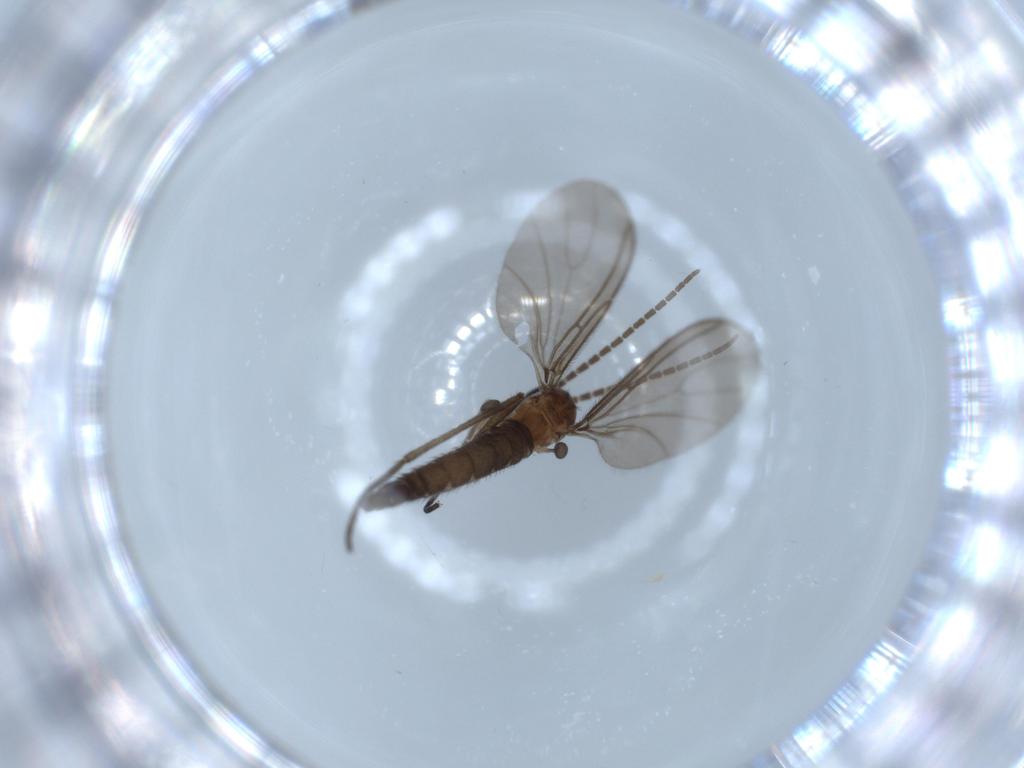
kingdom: Animalia
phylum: Arthropoda
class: Insecta
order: Diptera
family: Sciaridae
